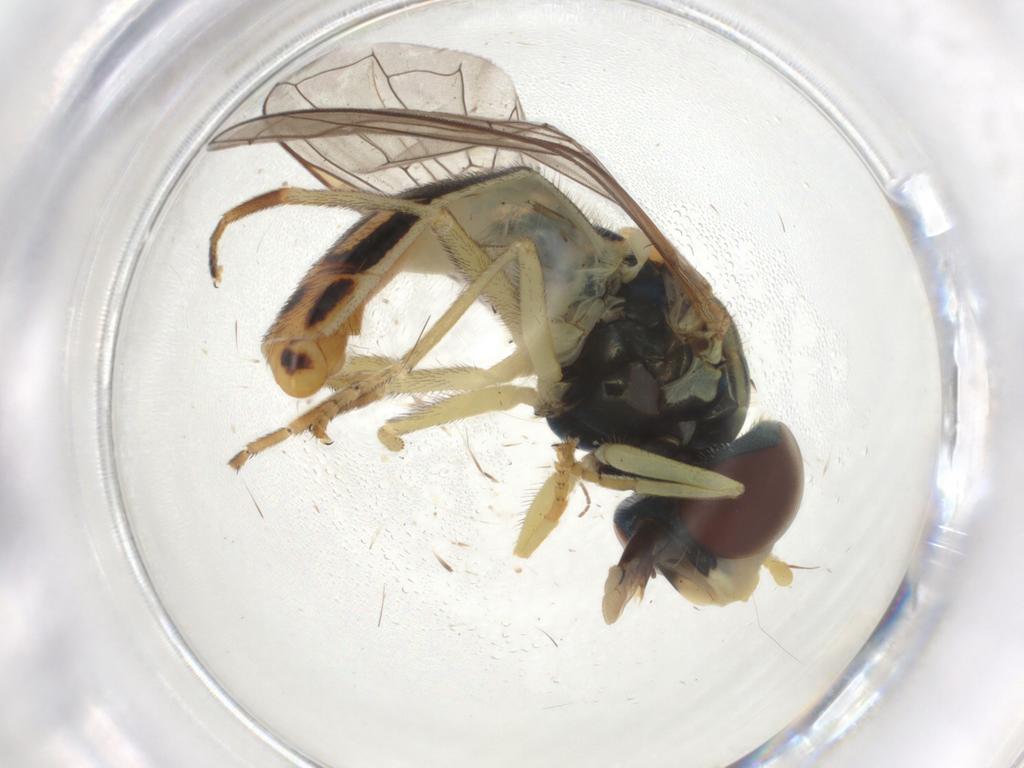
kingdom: Animalia
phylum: Arthropoda
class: Insecta
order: Diptera
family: Syrphidae
